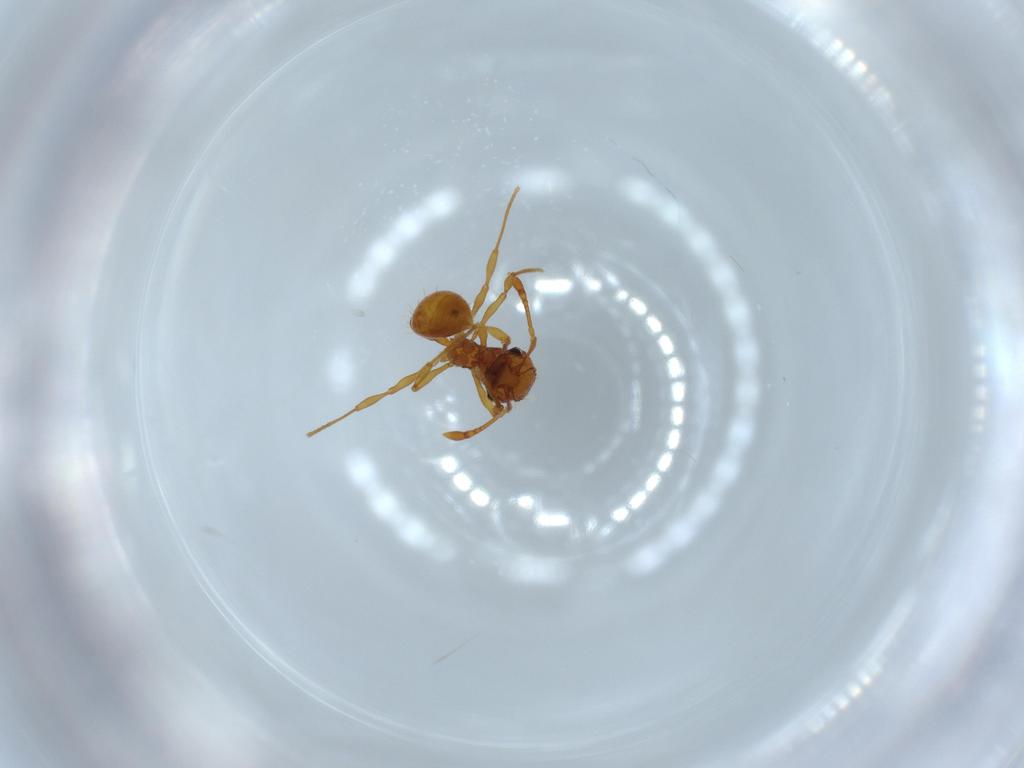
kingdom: Animalia
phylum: Arthropoda
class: Insecta
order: Hymenoptera
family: Formicidae
